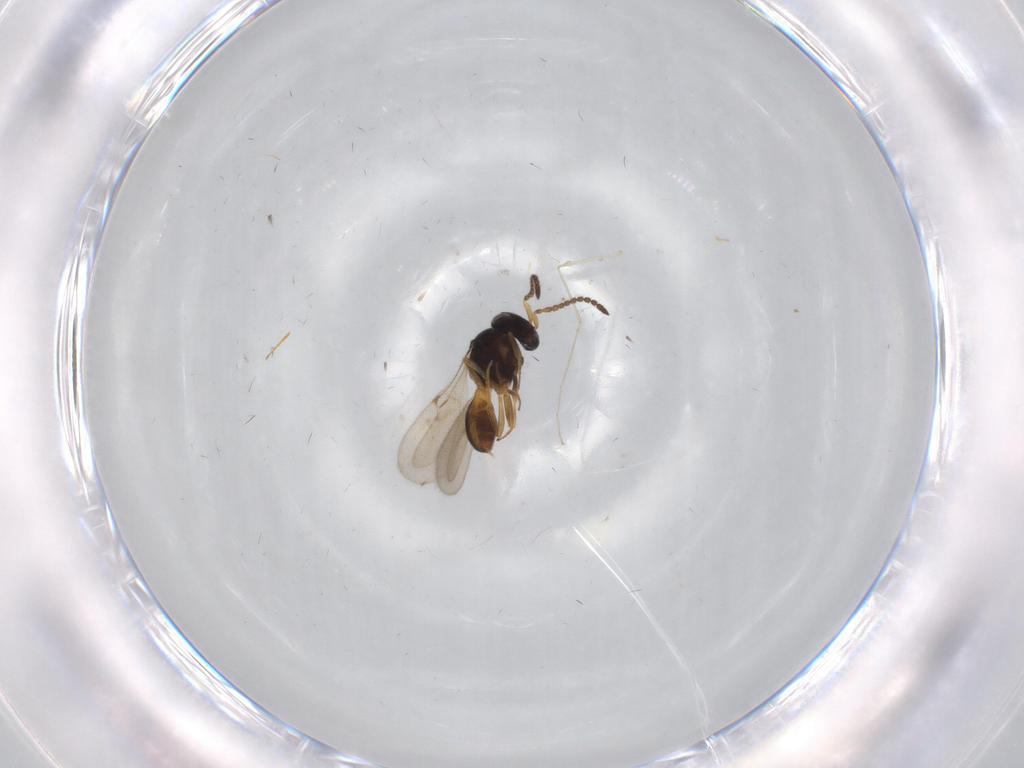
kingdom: Animalia
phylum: Arthropoda
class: Insecta
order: Hymenoptera
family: Scelionidae
